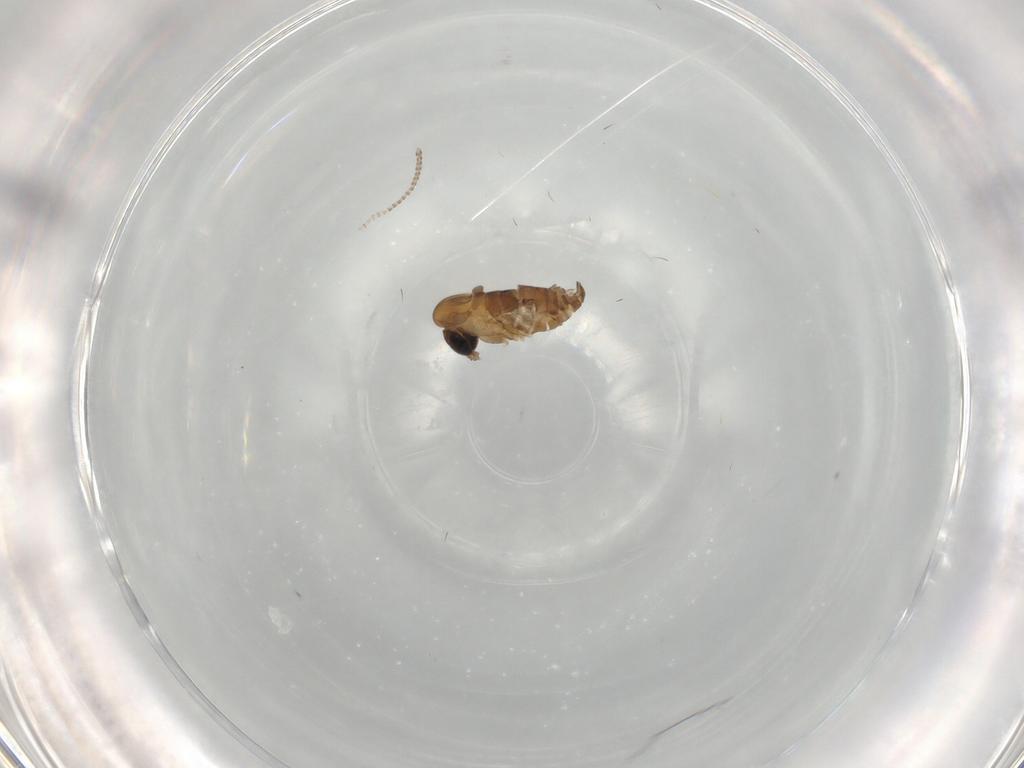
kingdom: Animalia
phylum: Arthropoda
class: Insecta
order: Diptera
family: Psychodidae
